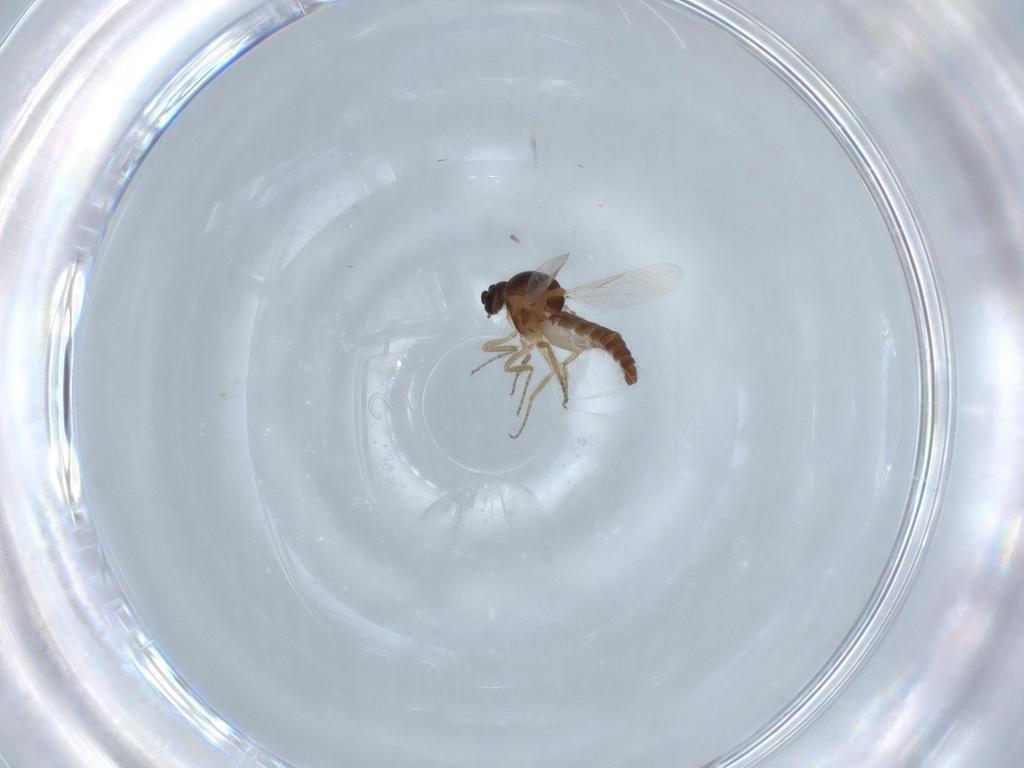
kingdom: Animalia
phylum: Arthropoda
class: Insecta
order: Diptera
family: Ceratopogonidae
